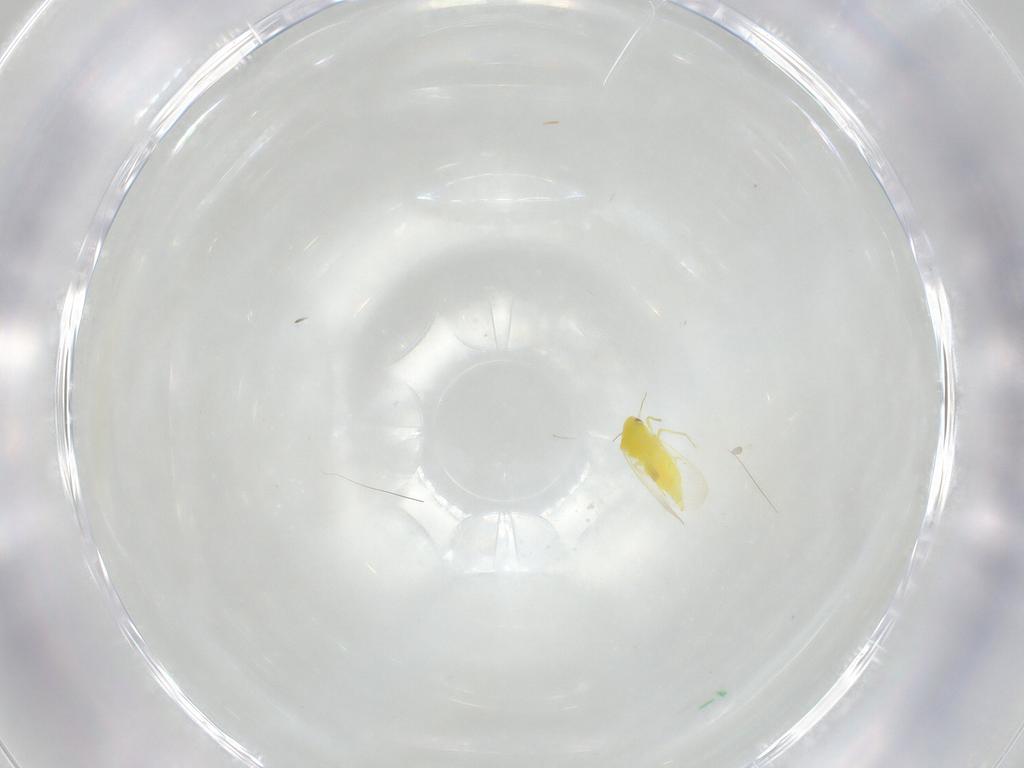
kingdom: Animalia
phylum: Arthropoda
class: Insecta
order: Hemiptera
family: Aleyrodidae
